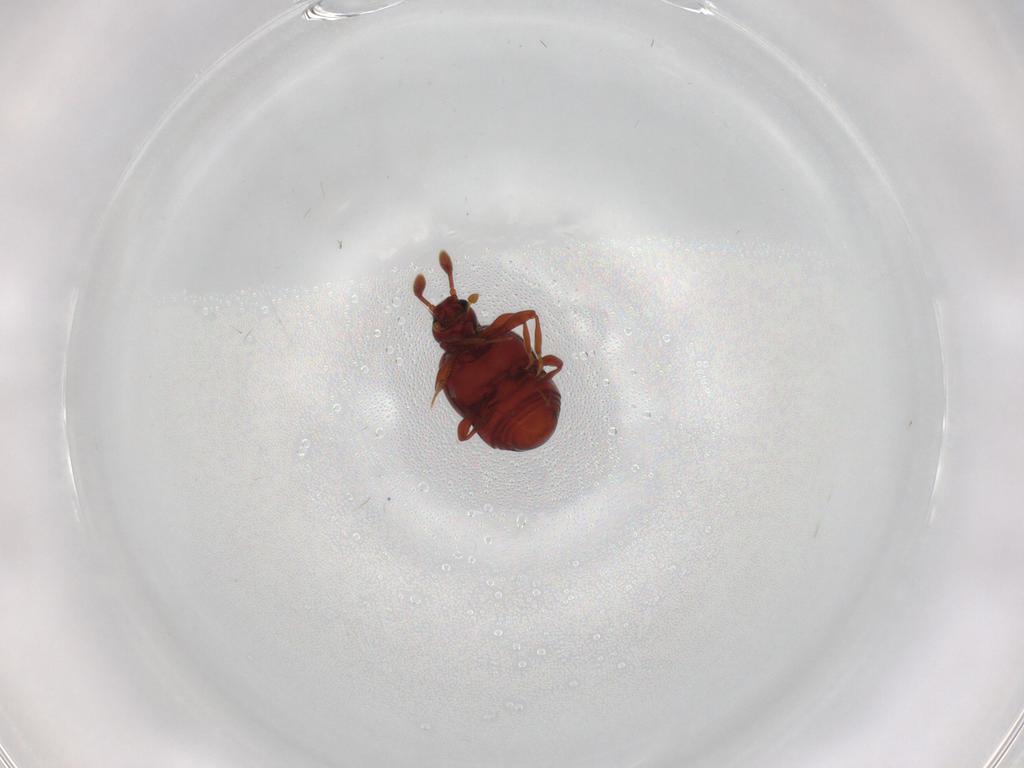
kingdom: Animalia
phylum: Arthropoda
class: Insecta
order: Coleoptera
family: Staphylinidae
